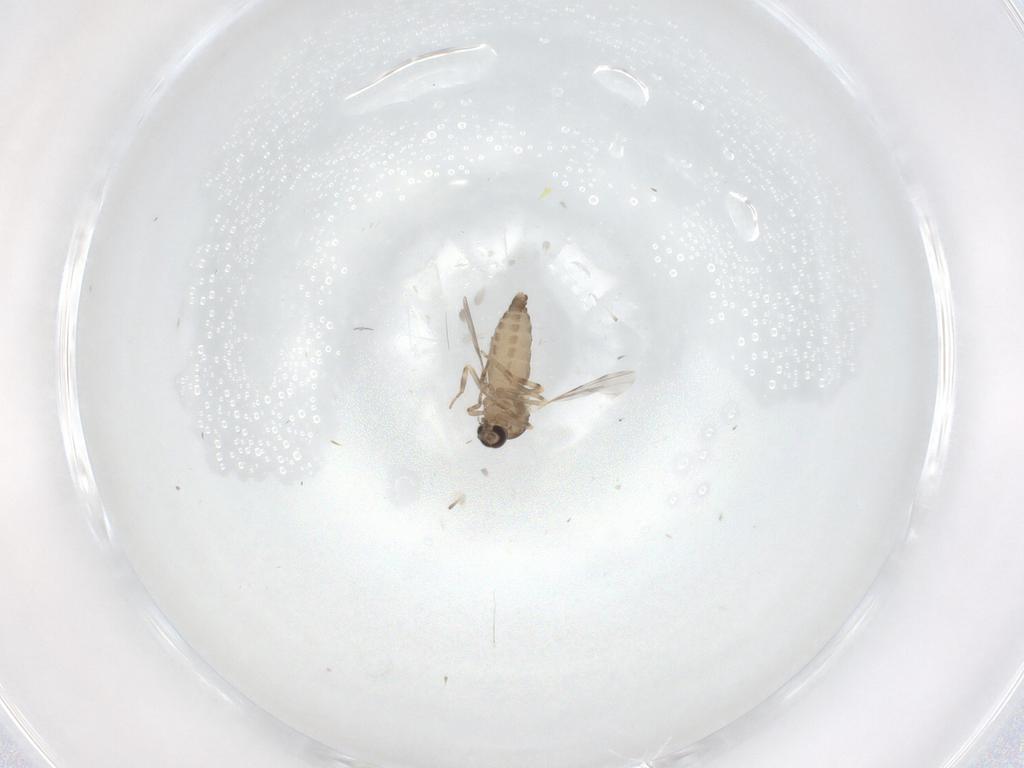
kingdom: Animalia
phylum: Arthropoda
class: Insecta
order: Diptera
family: Ceratopogonidae
